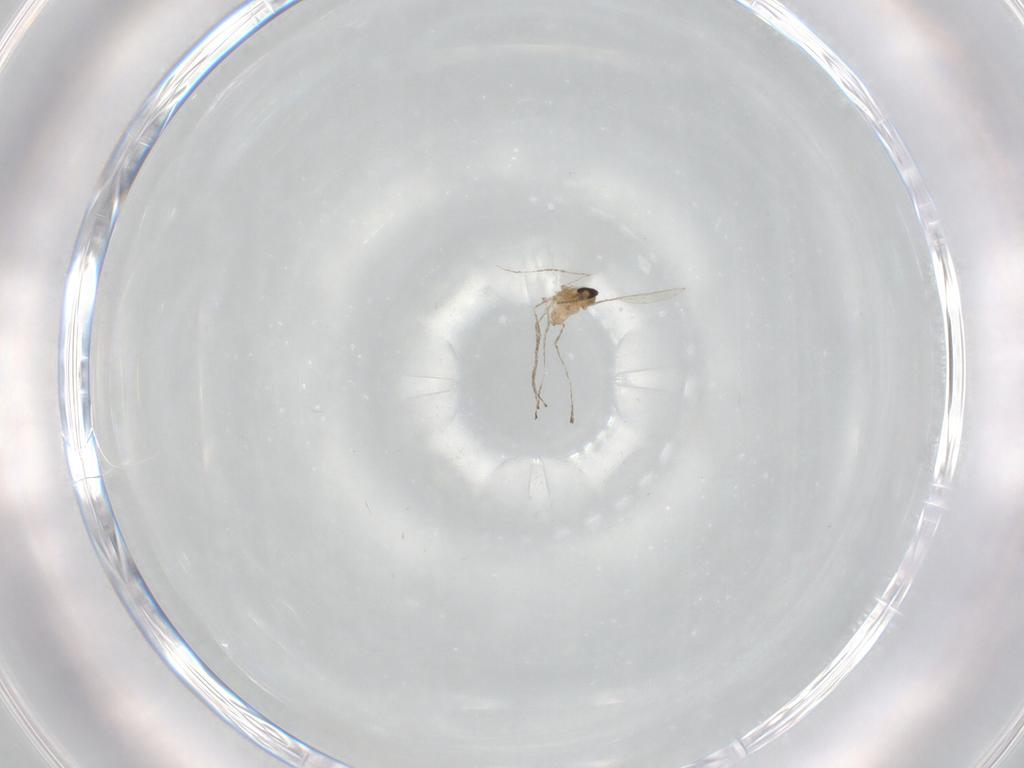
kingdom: Animalia
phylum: Arthropoda
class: Insecta
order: Diptera
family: Cecidomyiidae
